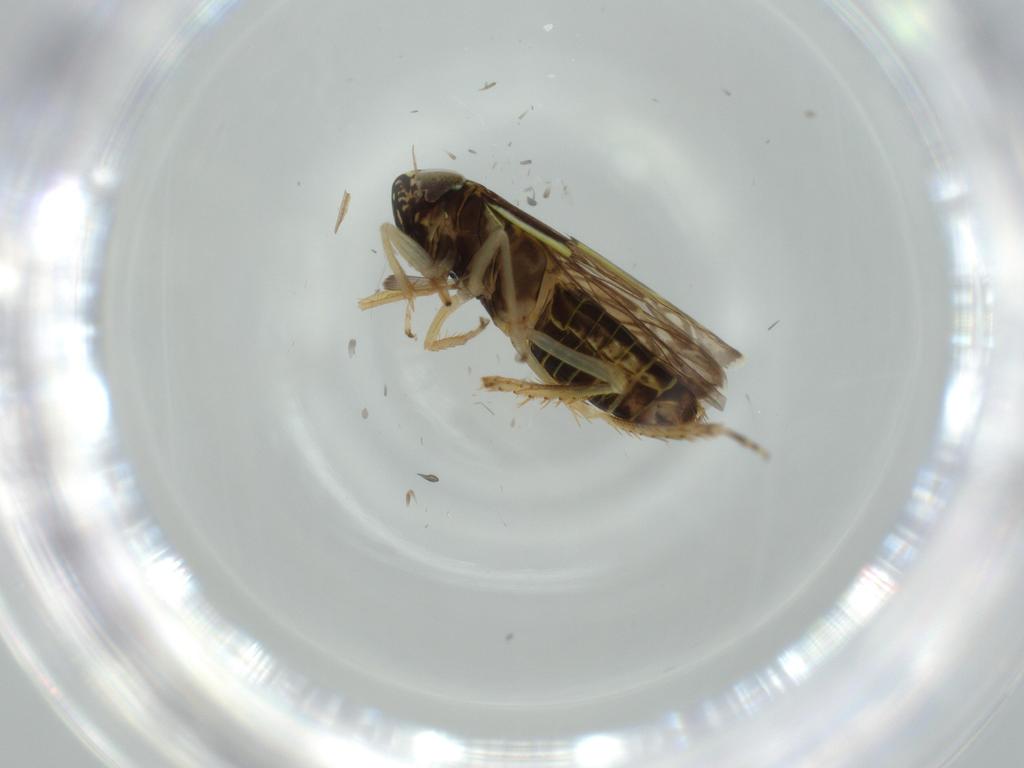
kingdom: Animalia
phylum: Arthropoda
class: Insecta
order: Hemiptera
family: Cicadellidae
